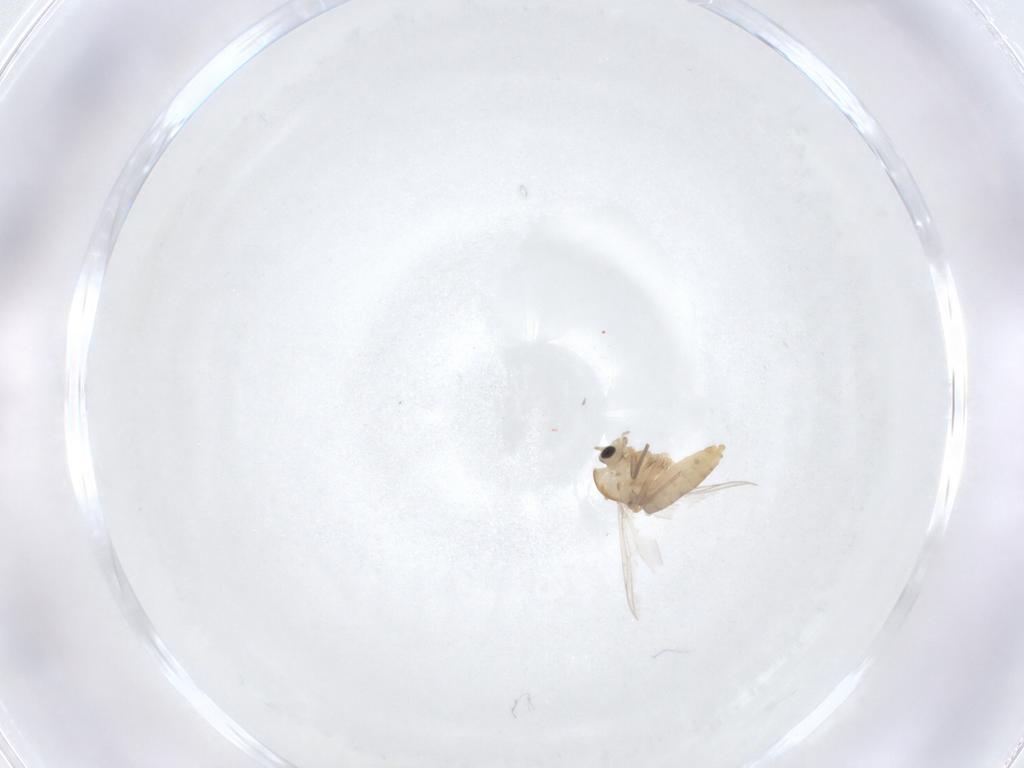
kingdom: Animalia
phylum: Arthropoda
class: Insecta
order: Diptera
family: Chironomidae
